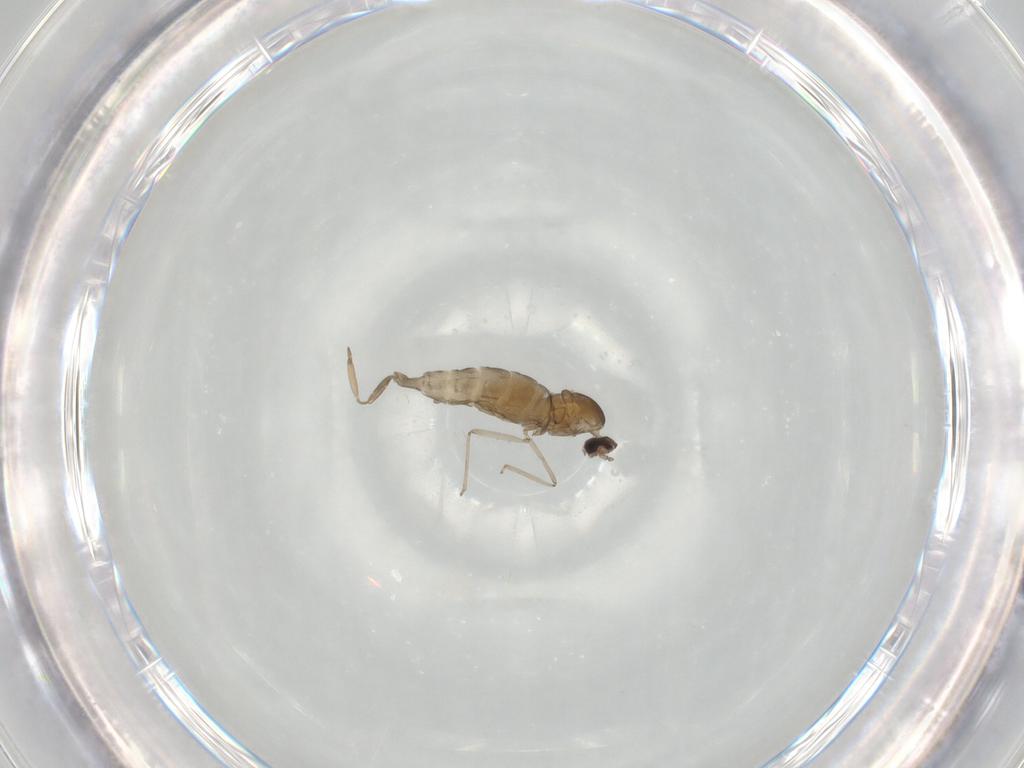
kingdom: Animalia
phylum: Arthropoda
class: Insecta
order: Diptera
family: Cecidomyiidae
